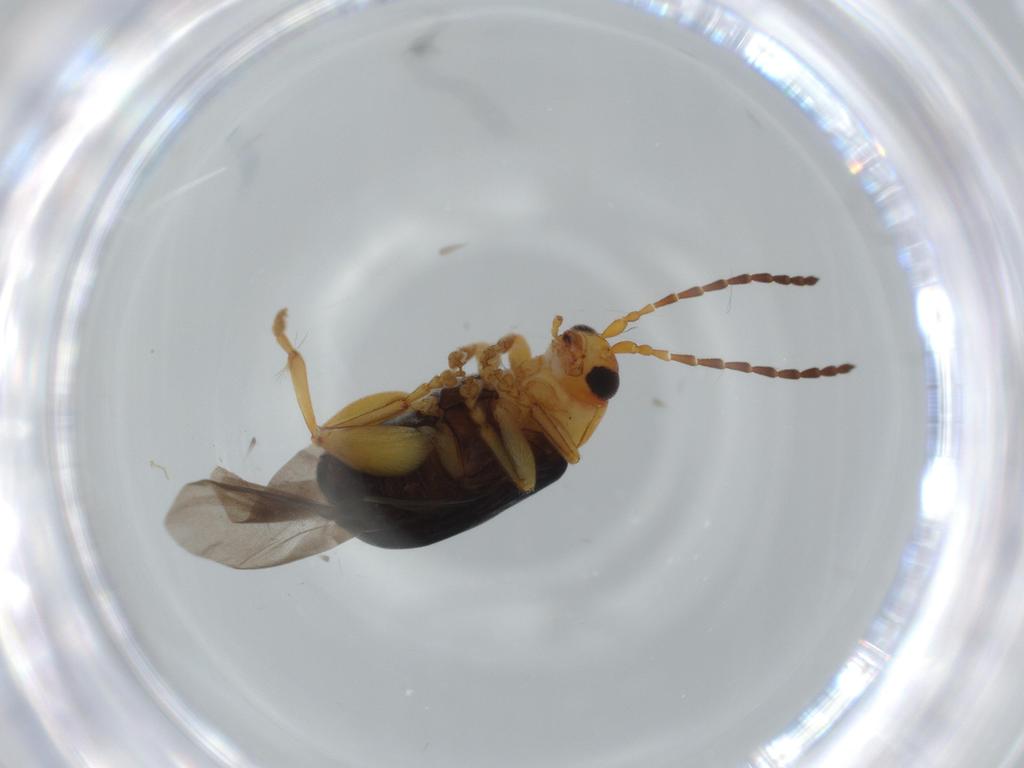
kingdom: Animalia
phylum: Arthropoda
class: Insecta
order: Coleoptera
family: Chrysomelidae
